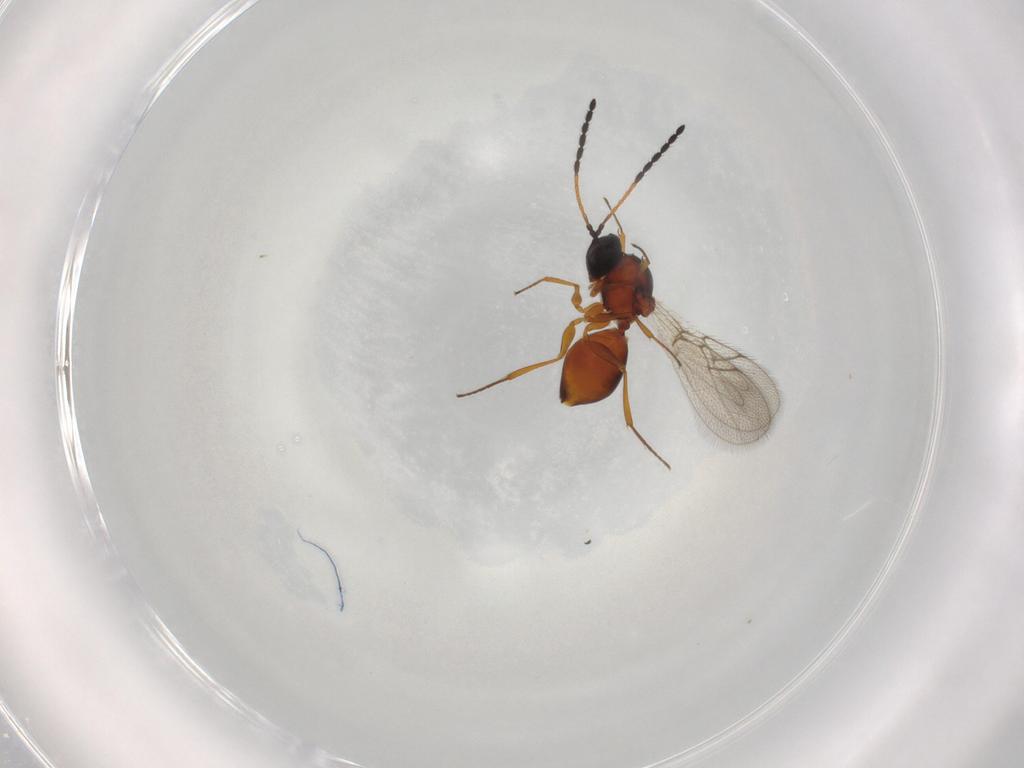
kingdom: Animalia
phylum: Arthropoda
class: Insecta
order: Hymenoptera
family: Figitidae
